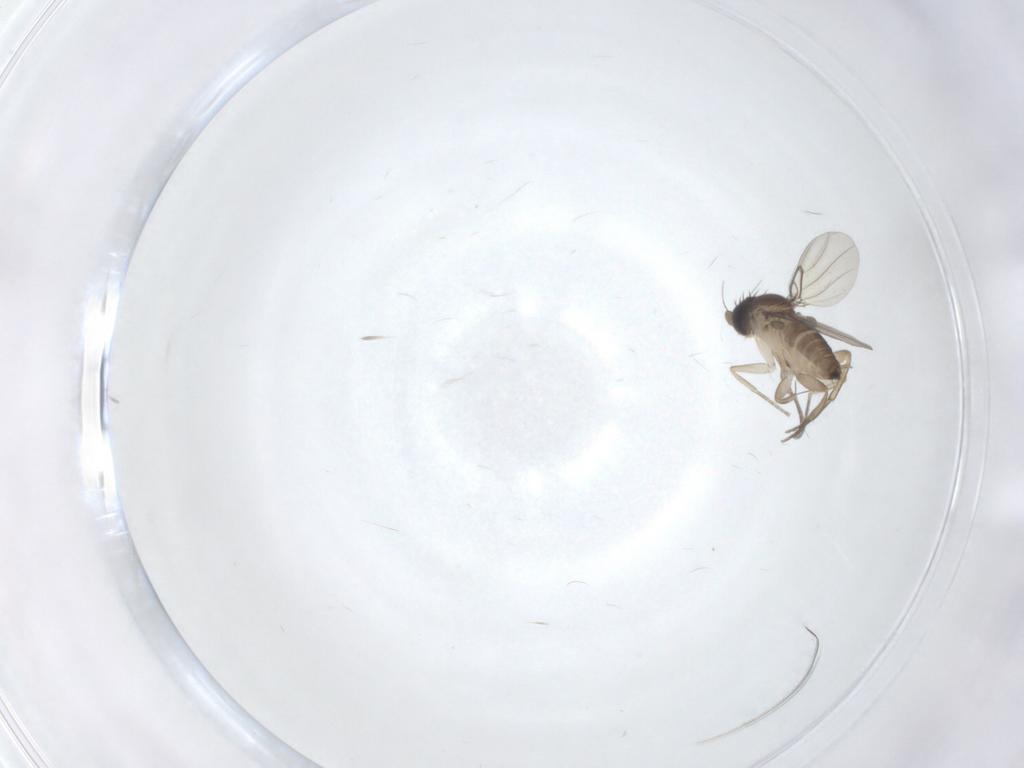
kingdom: Animalia
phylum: Arthropoda
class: Insecta
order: Diptera
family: Phoridae
